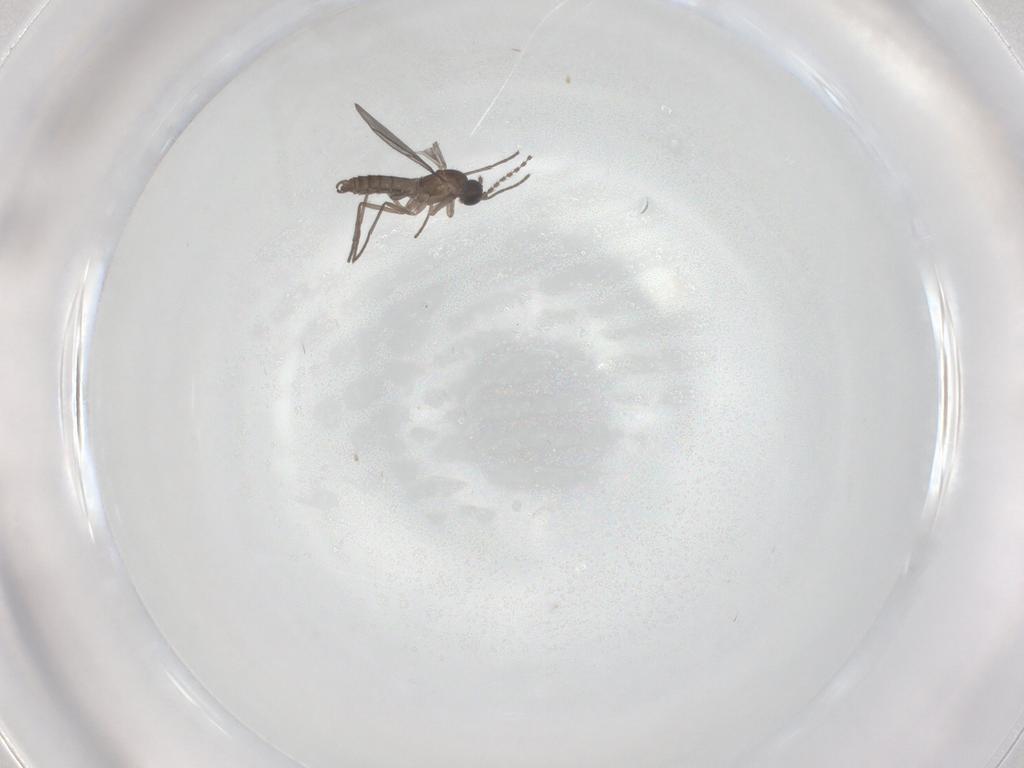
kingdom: Animalia
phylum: Arthropoda
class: Insecta
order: Diptera
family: Sciaridae
